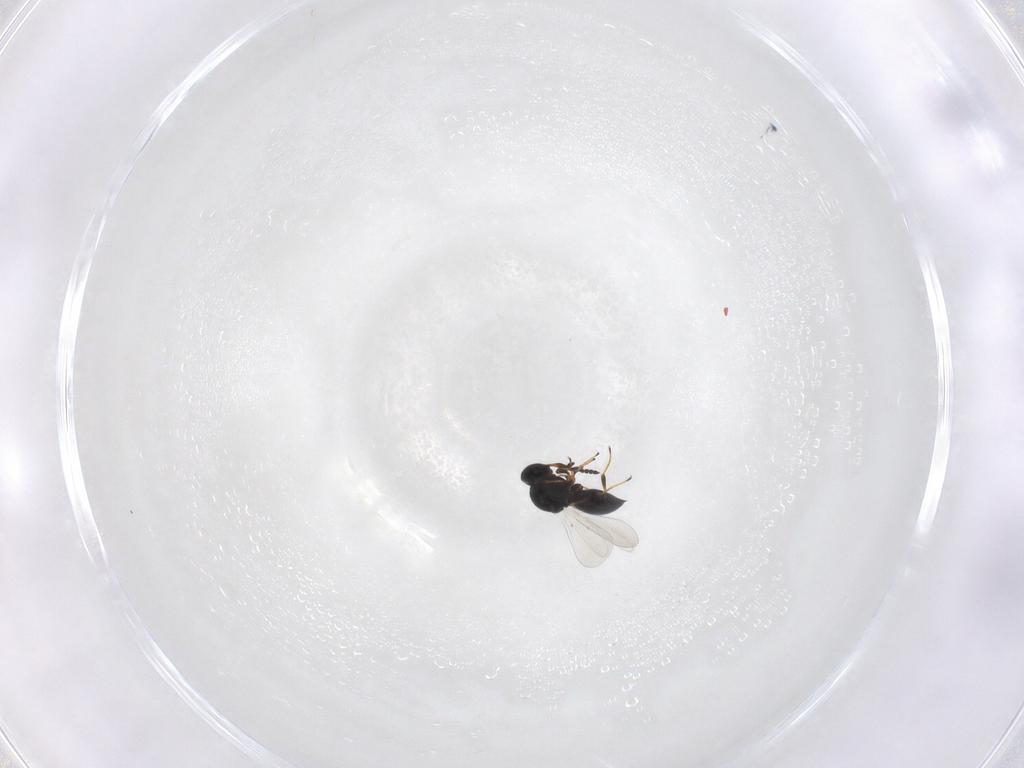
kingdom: Animalia
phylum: Arthropoda
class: Insecta
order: Hymenoptera
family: Platygastridae
